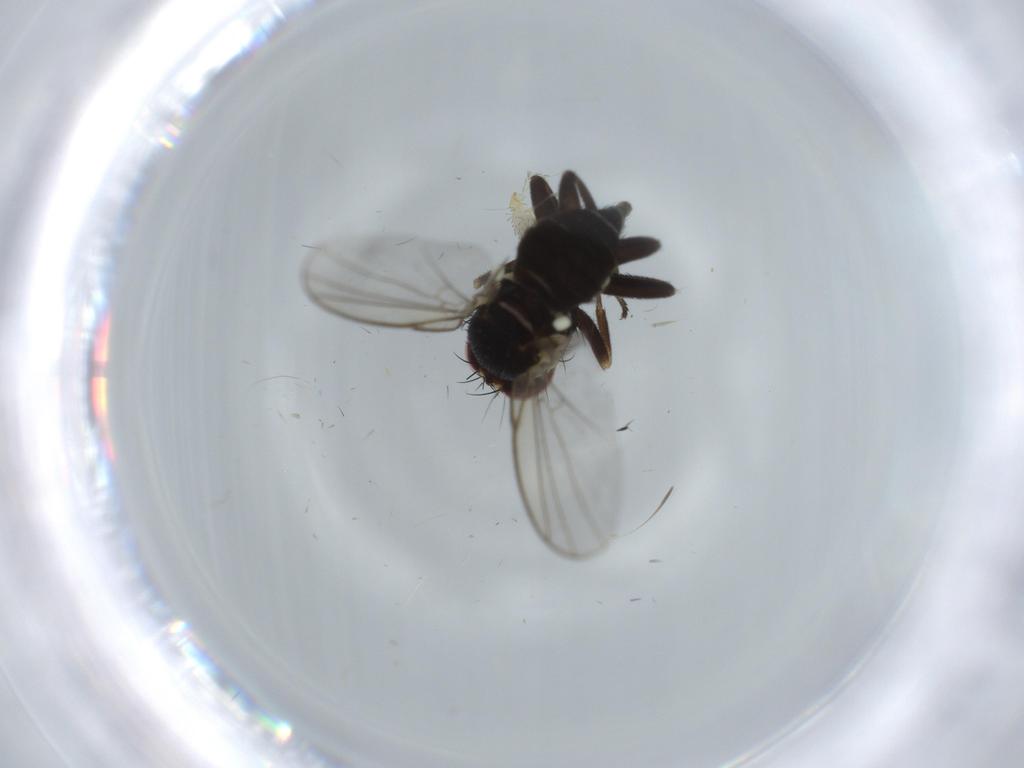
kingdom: Animalia
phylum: Arthropoda
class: Insecta
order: Diptera
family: Agromyzidae
